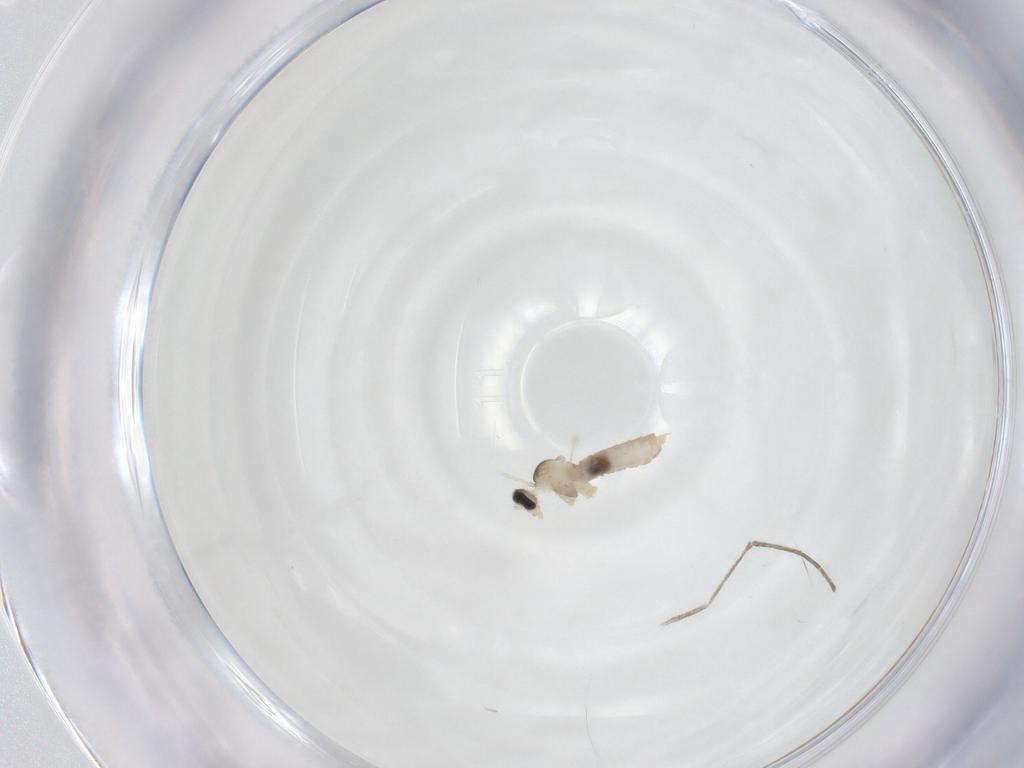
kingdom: Animalia
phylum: Arthropoda
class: Insecta
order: Diptera
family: Cecidomyiidae
